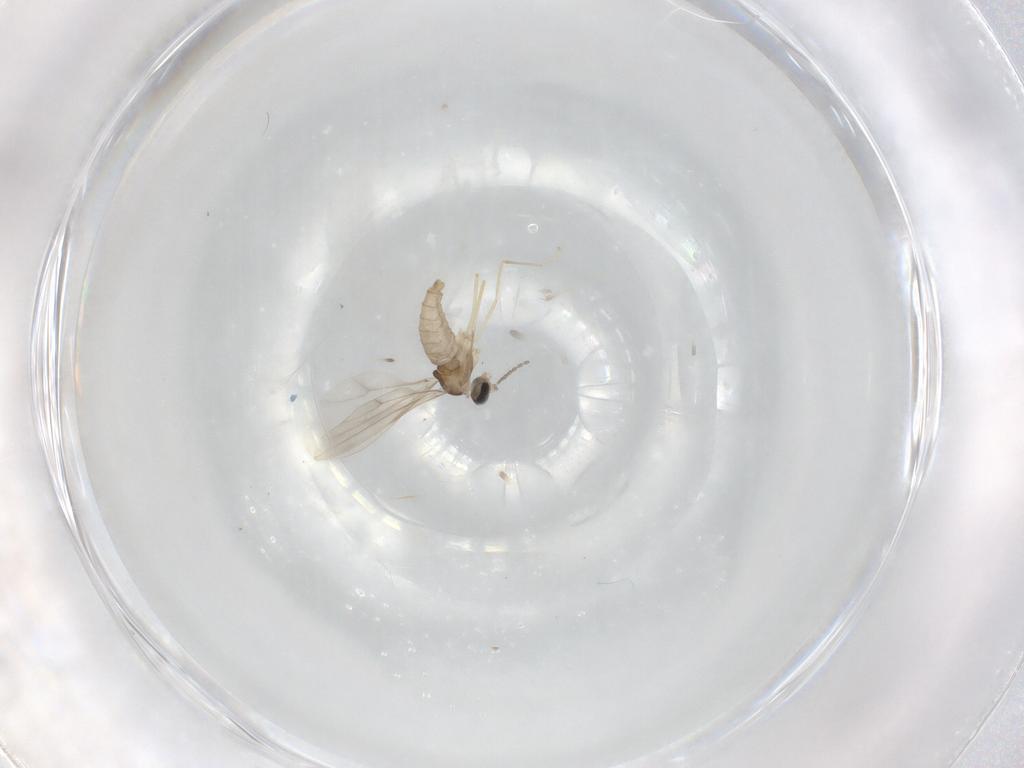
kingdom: Animalia
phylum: Arthropoda
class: Insecta
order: Diptera
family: Cecidomyiidae
